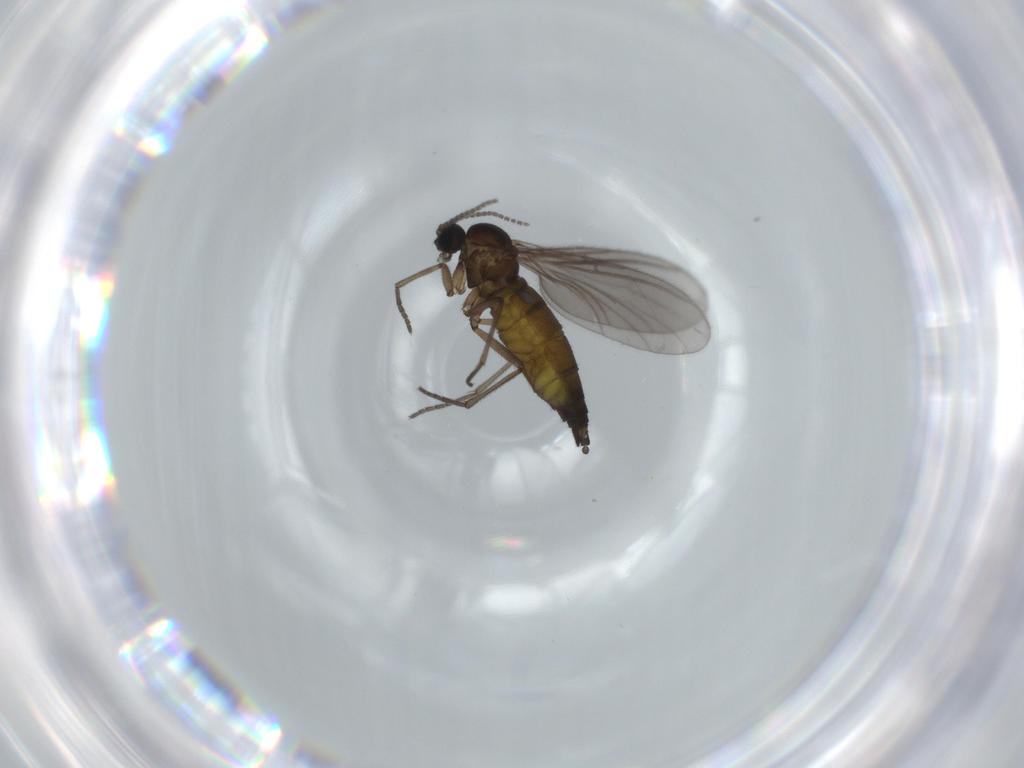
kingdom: Animalia
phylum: Arthropoda
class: Insecta
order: Diptera
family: Sciaridae
